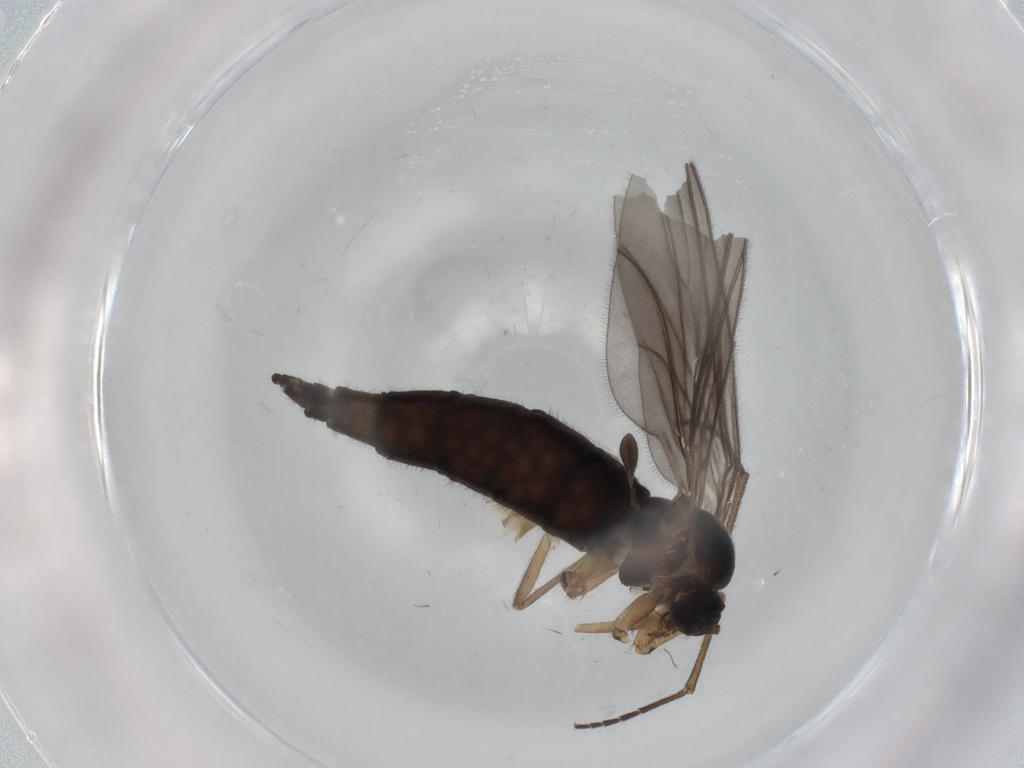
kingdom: Animalia
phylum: Arthropoda
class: Insecta
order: Diptera
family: Sciaridae
